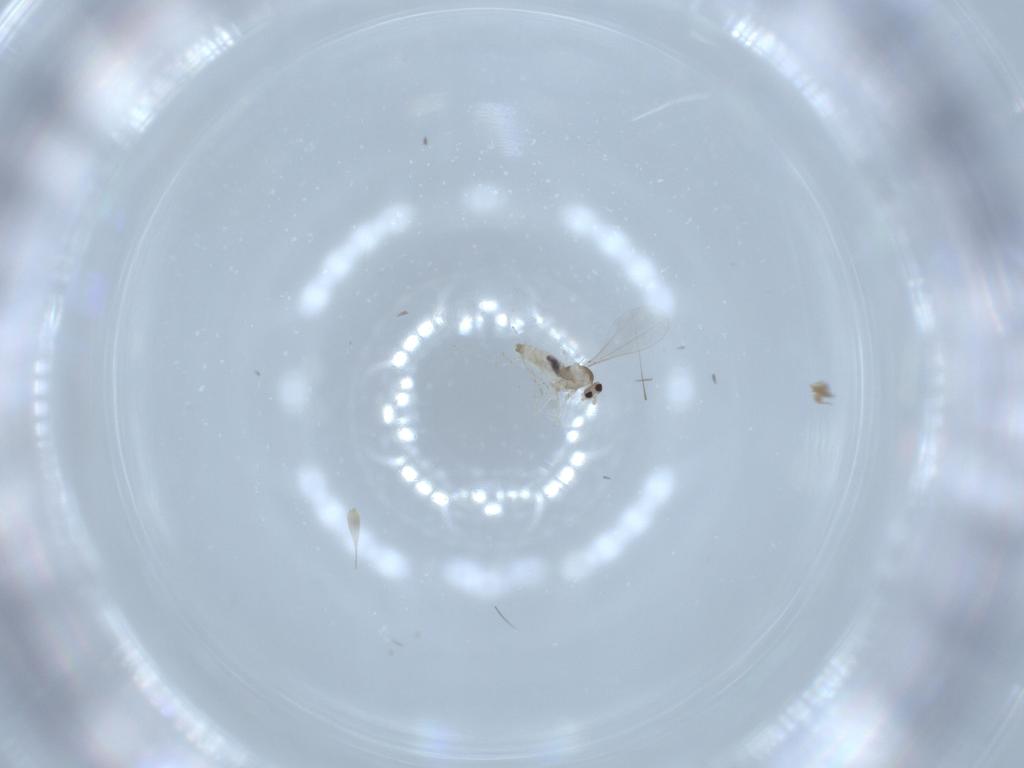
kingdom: Animalia
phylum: Arthropoda
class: Insecta
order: Diptera
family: Cecidomyiidae
